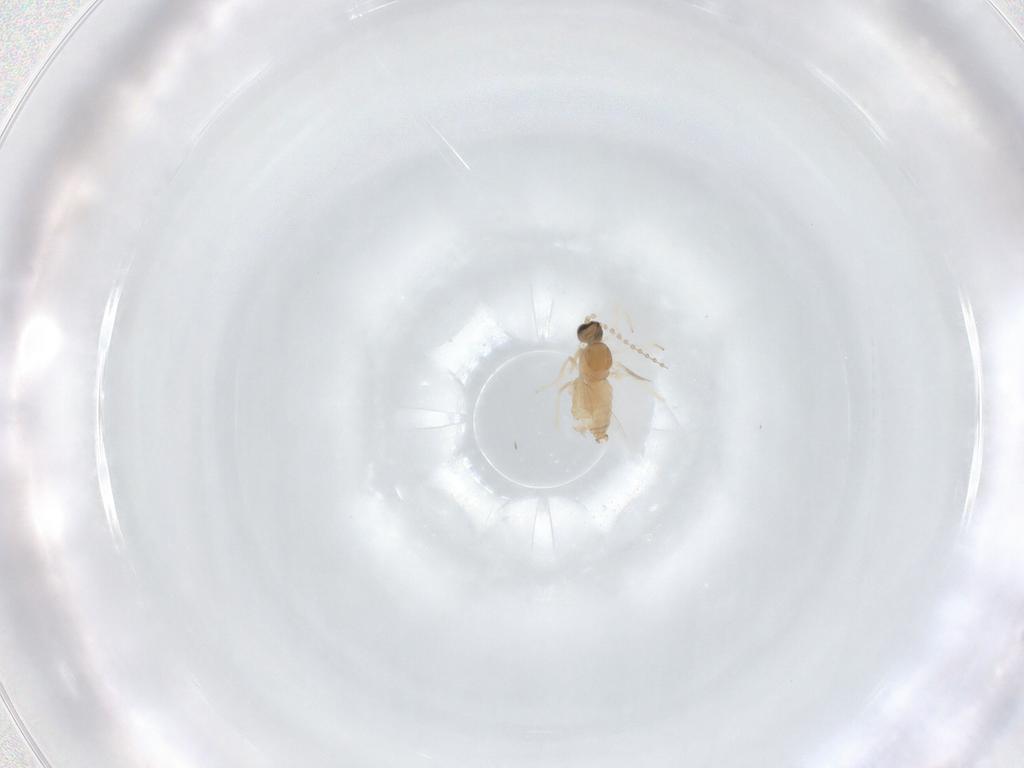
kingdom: Animalia
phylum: Arthropoda
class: Insecta
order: Diptera
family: Cecidomyiidae
